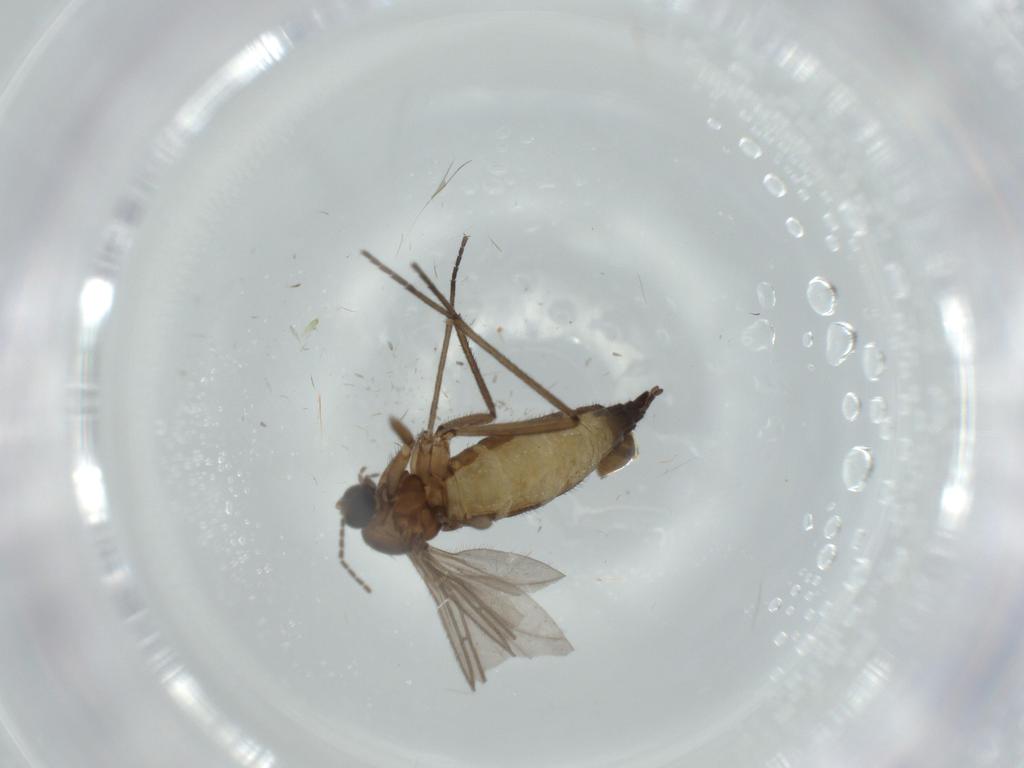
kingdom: Animalia
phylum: Arthropoda
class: Insecta
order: Diptera
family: Sciaridae
